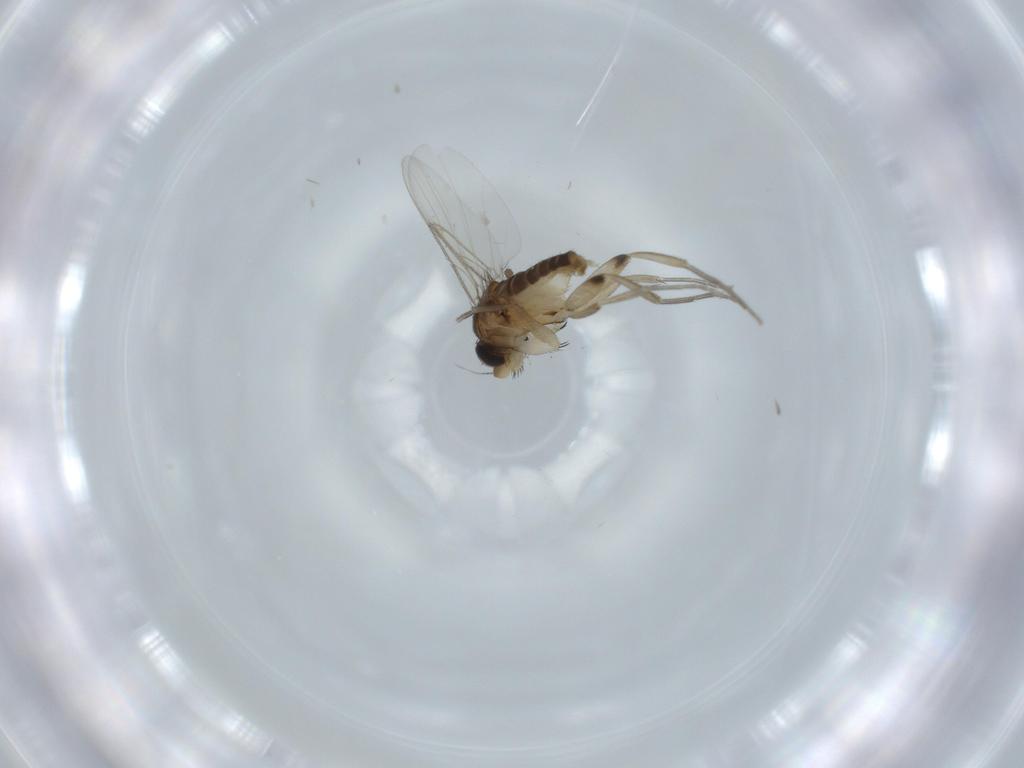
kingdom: Animalia
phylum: Arthropoda
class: Insecta
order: Diptera
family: Phoridae
